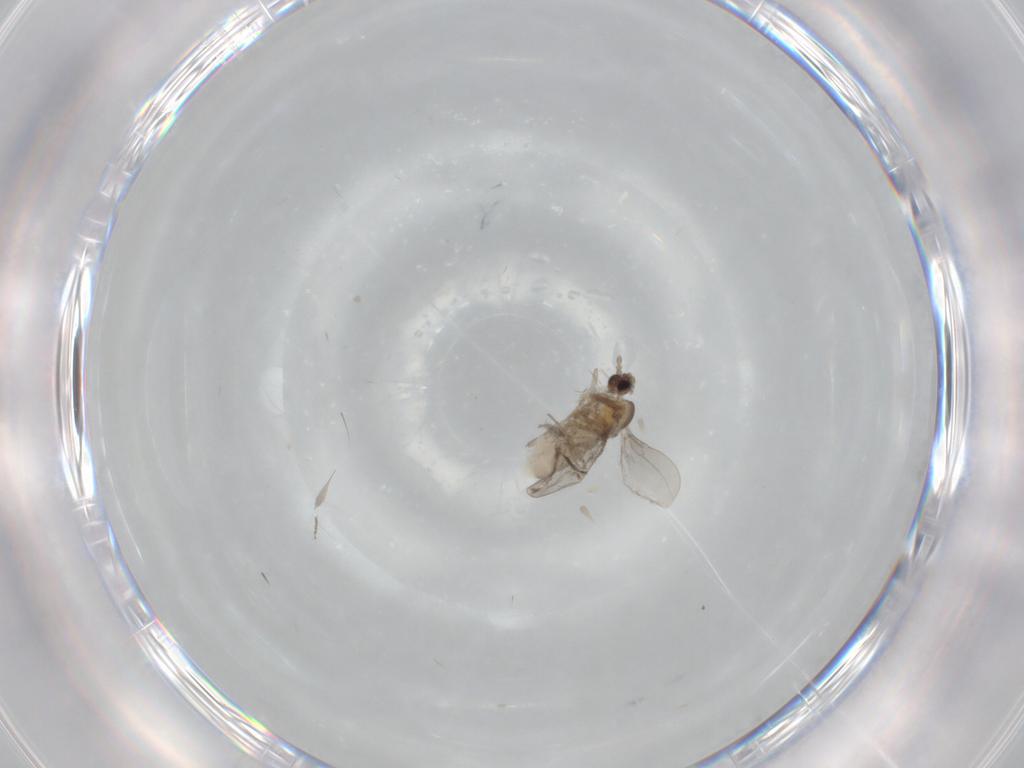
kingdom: Animalia
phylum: Arthropoda
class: Insecta
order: Diptera
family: Cecidomyiidae
